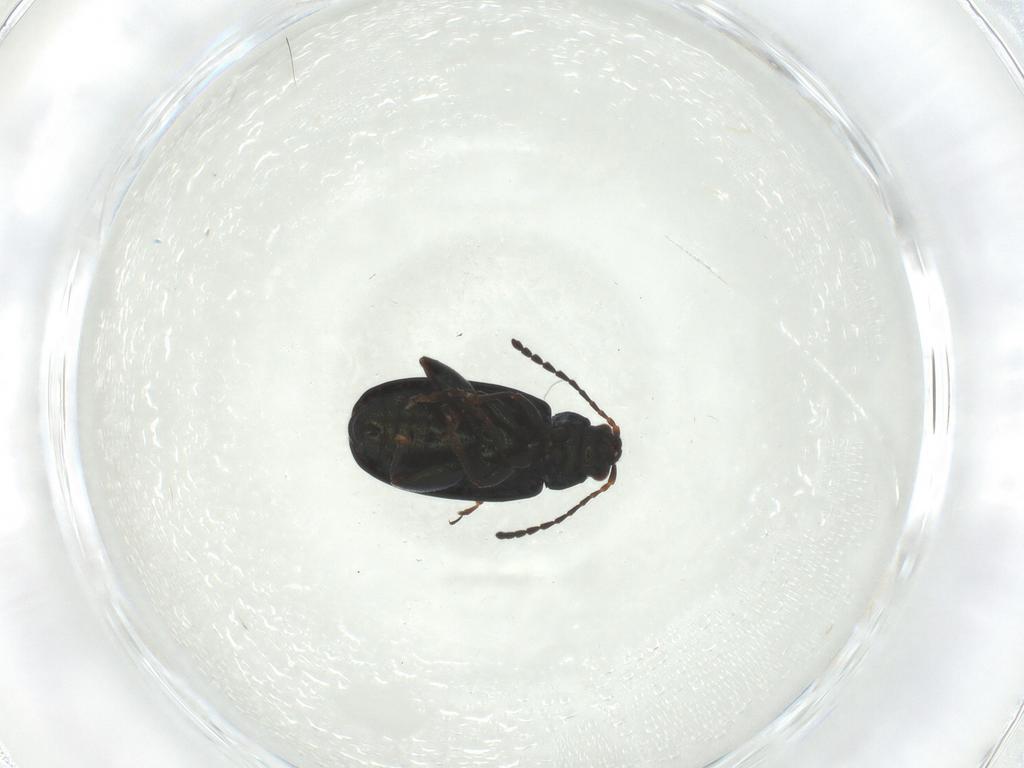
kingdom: Animalia
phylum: Arthropoda
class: Insecta
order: Coleoptera
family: Chrysomelidae
